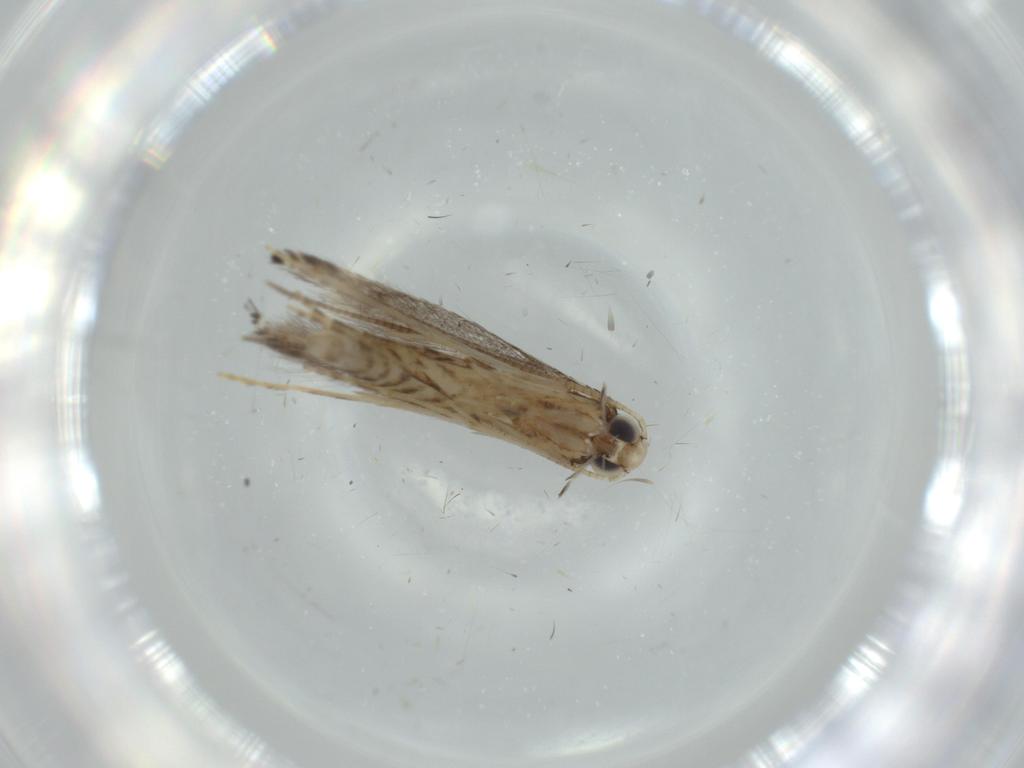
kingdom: Animalia
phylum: Arthropoda
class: Insecta
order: Lepidoptera
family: Gracillariidae
